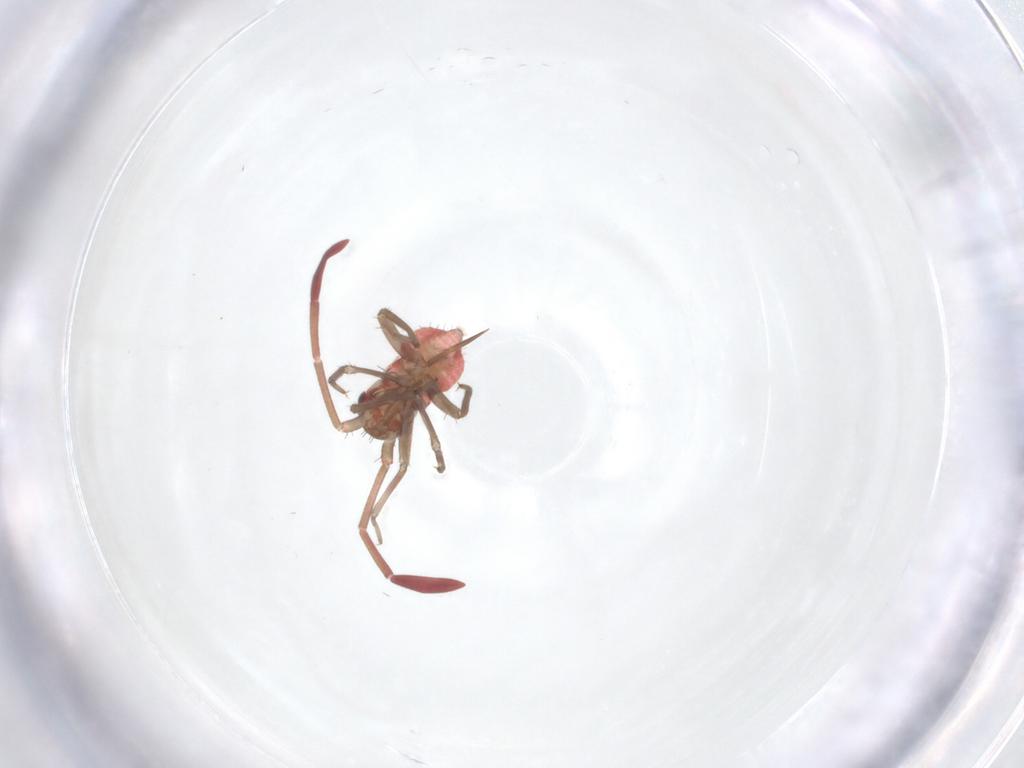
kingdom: Animalia
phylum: Arthropoda
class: Insecta
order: Hemiptera
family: Miridae
